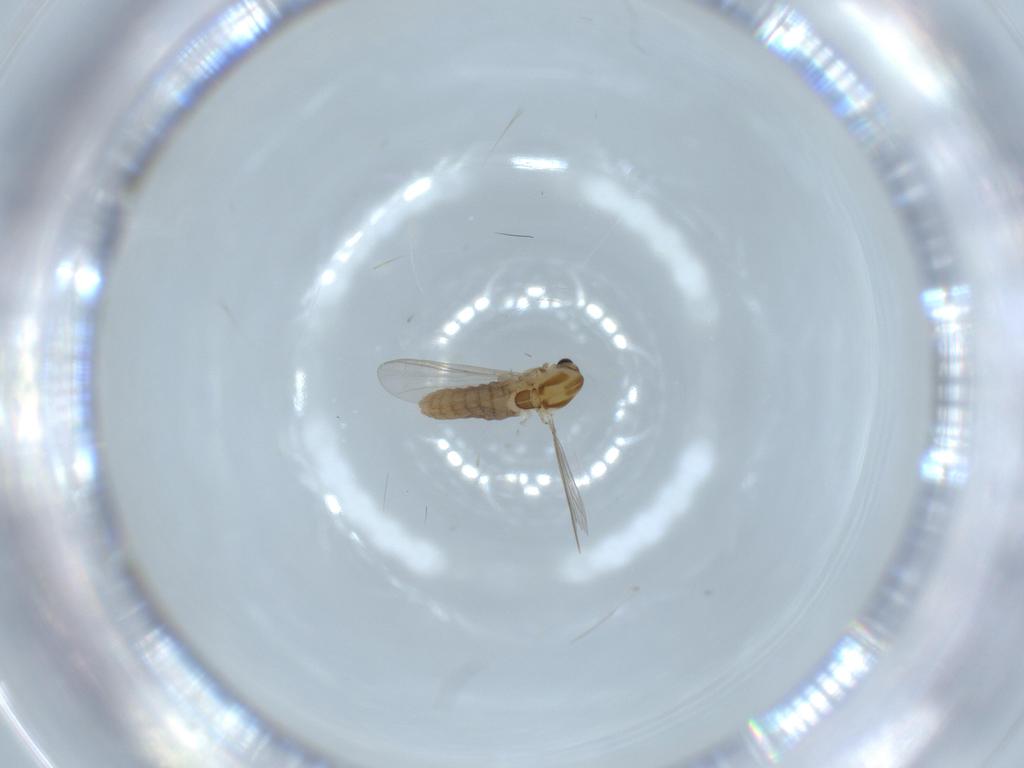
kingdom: Animalia
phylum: Arthropoda
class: Insecta
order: Diptera
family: Chironomidae
